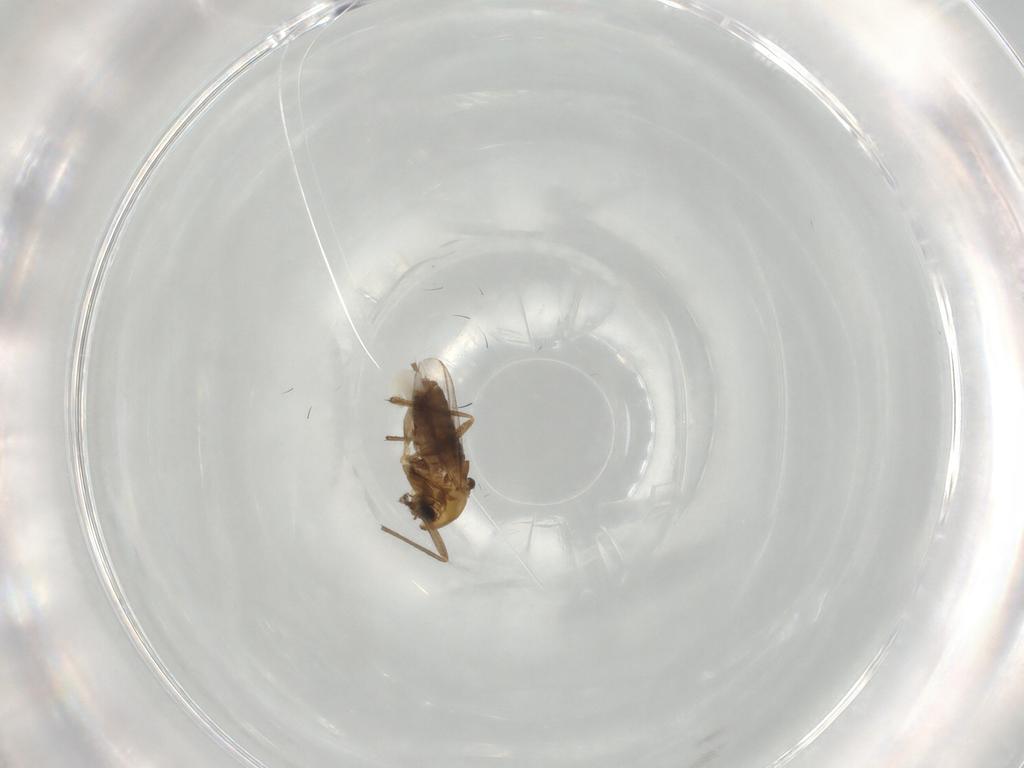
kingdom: Animalia
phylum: Arthropoda
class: Insecta
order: Diptera
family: Chironomidae
